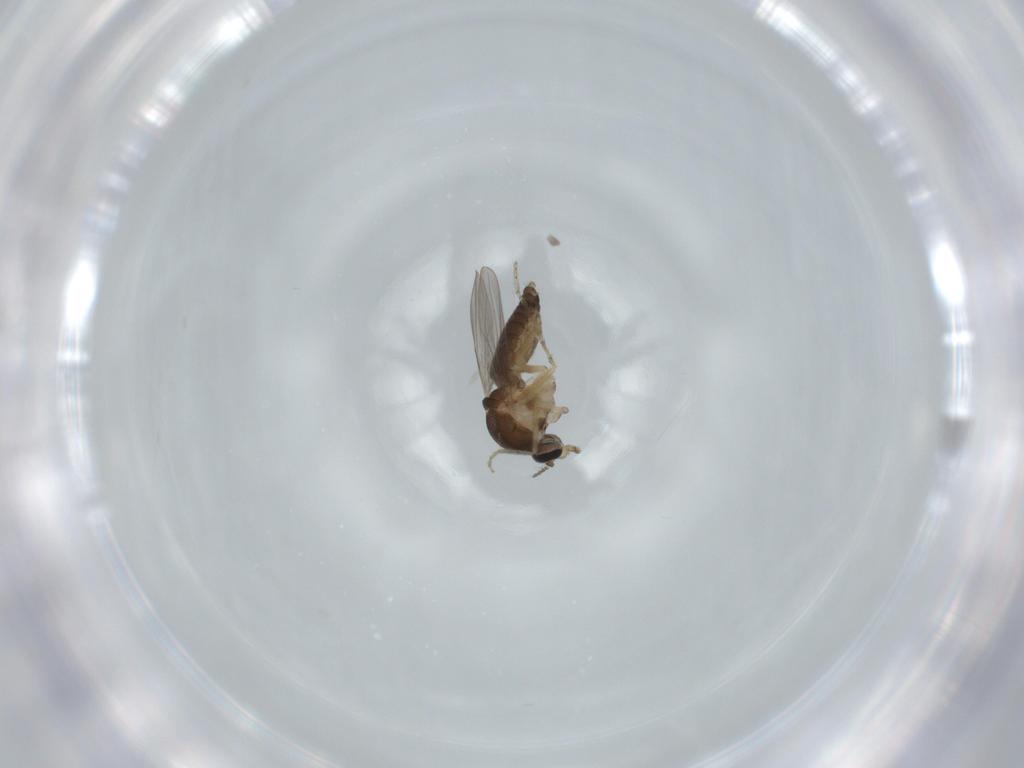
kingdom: Animalia
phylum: Arthropoda
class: Insecta
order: Diptera
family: Ceratopogonidae
